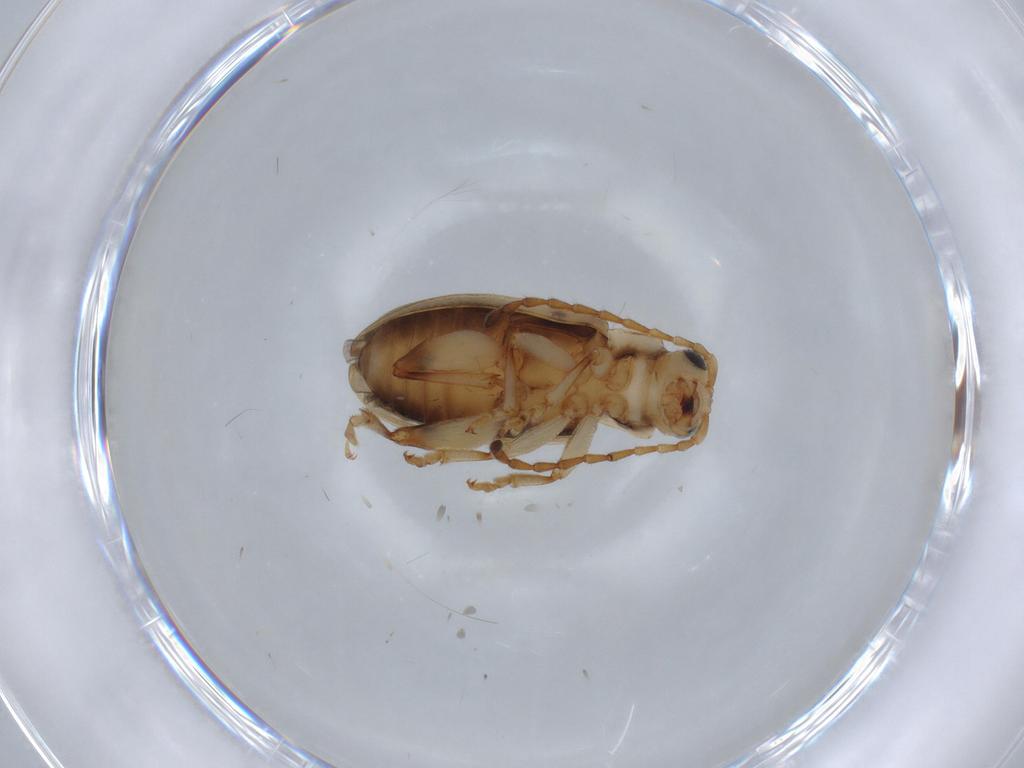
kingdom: Animalia
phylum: Arthropoda
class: Insecta
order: Coleoptera
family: Chrysomelidae
